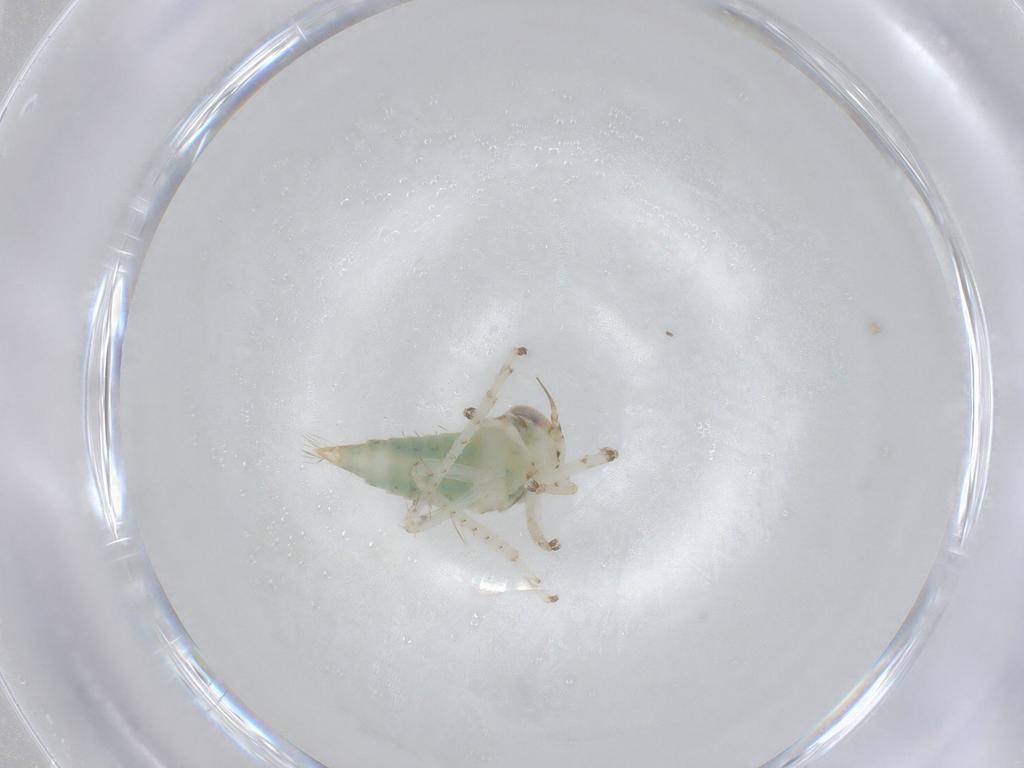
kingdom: Animalia
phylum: Arthropoda
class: Insecta
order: Hemiptera
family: Cicadellidae
